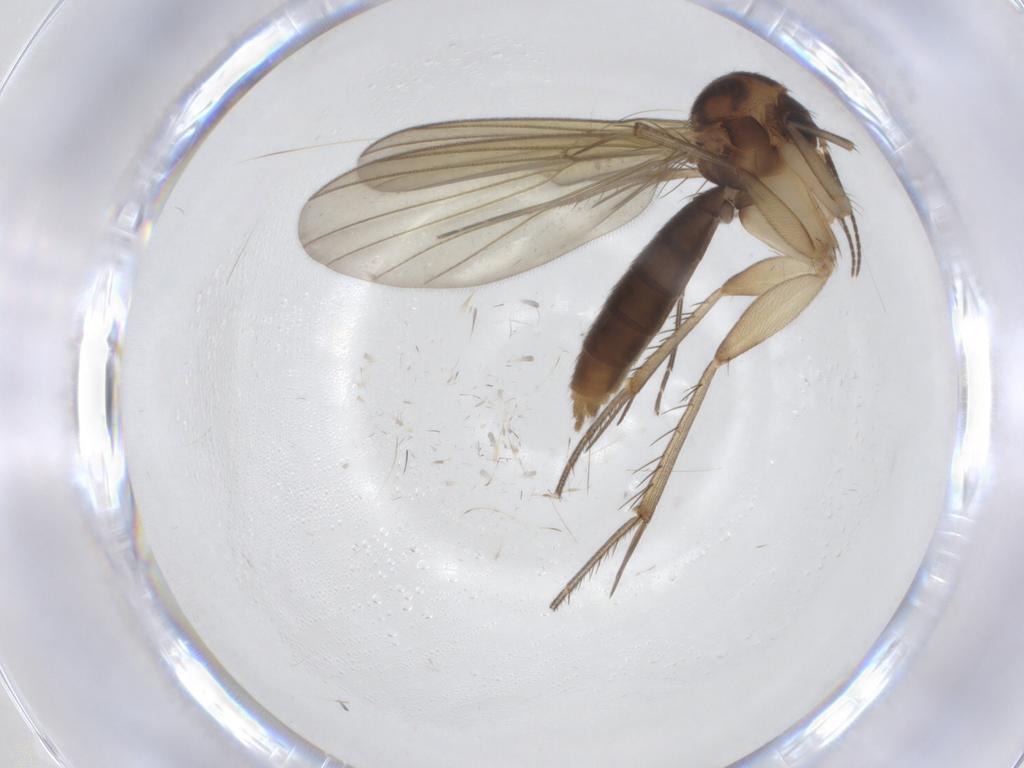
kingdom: Animalia
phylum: Arthropoda
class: Insecta
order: Diptera
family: Mycetophilidae
